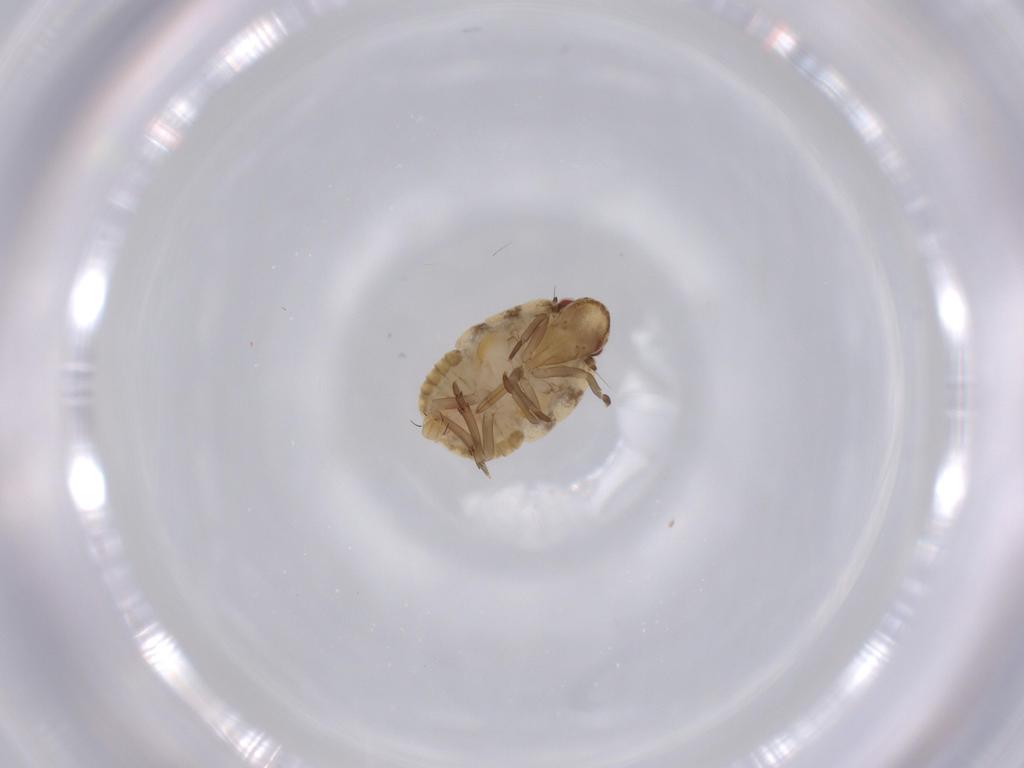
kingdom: Animalia
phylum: Arthropoda
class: Insecta
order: Hemiptera
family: Flatidae
